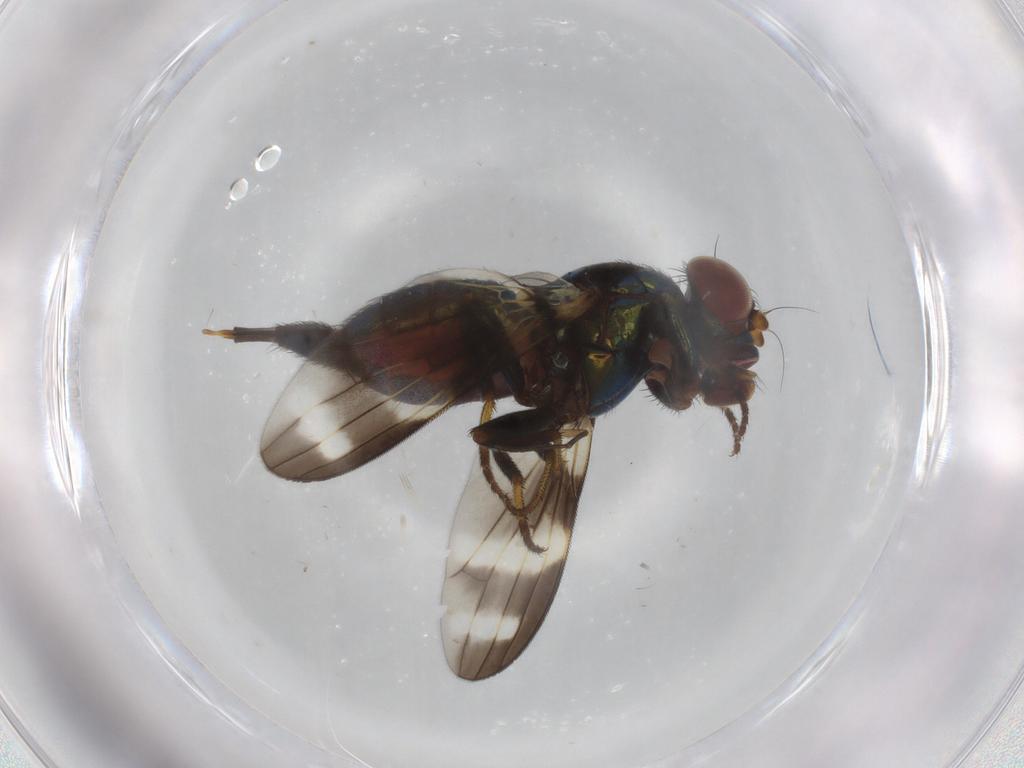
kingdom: Animalia
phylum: Arthropoda
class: Insecta
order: Diptera
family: Ulidiidae
